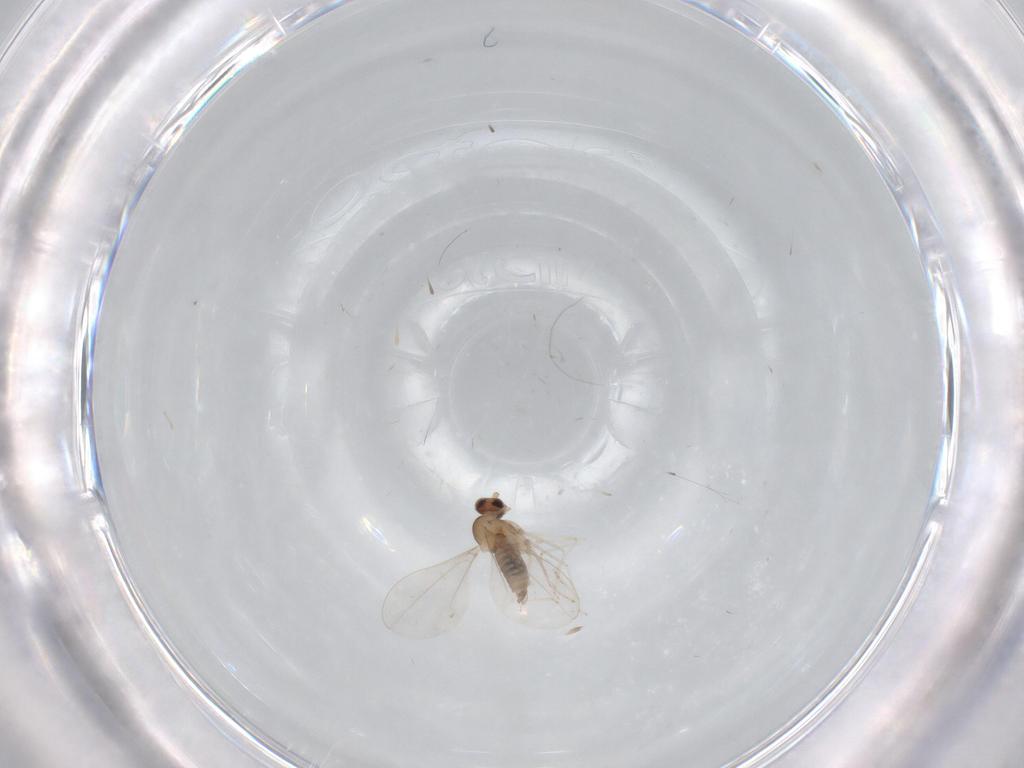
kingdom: Animalia
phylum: Arthropoda
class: Insecta
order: Diptera
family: Cecidomyiidae
